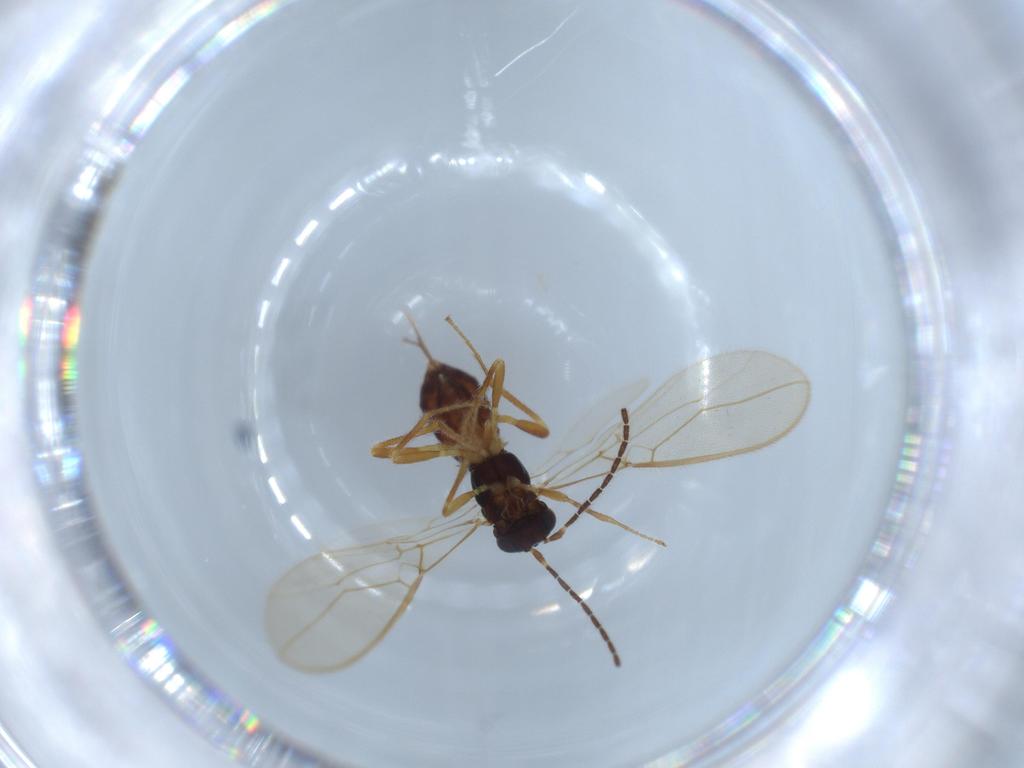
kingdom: Animalia
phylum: Arthropoda
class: Insecta
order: Hymenoptera
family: Braconidae
